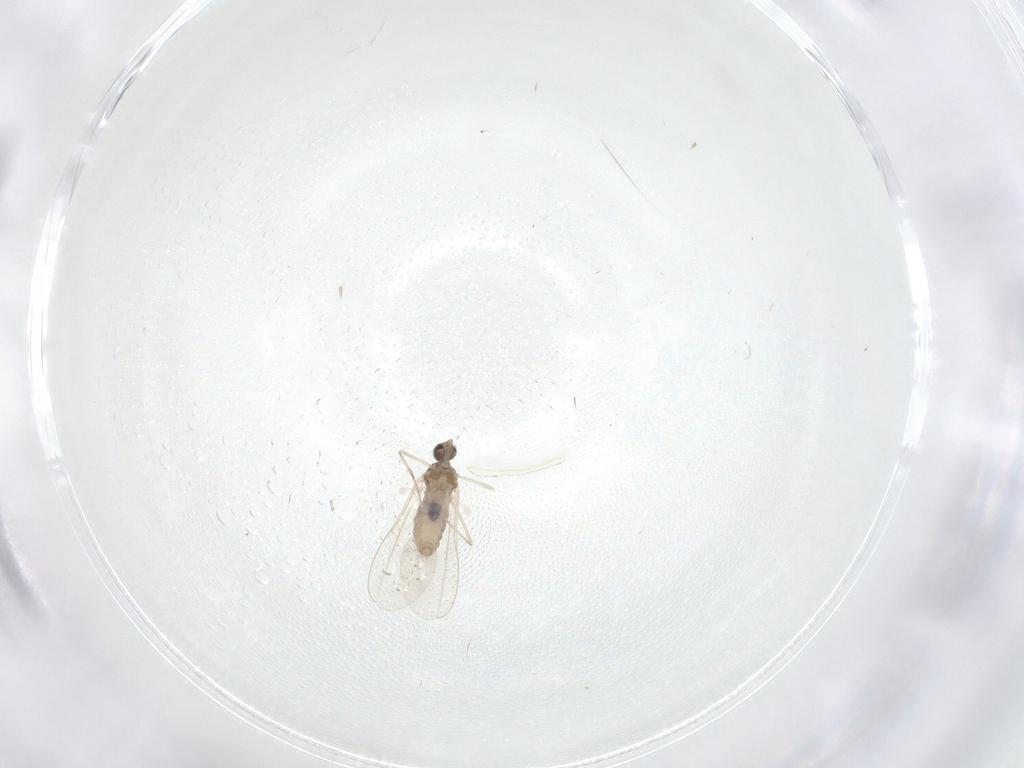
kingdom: Animalia
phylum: Arthropoda
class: Insecta
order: Diptera
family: Cecidomyiidae
